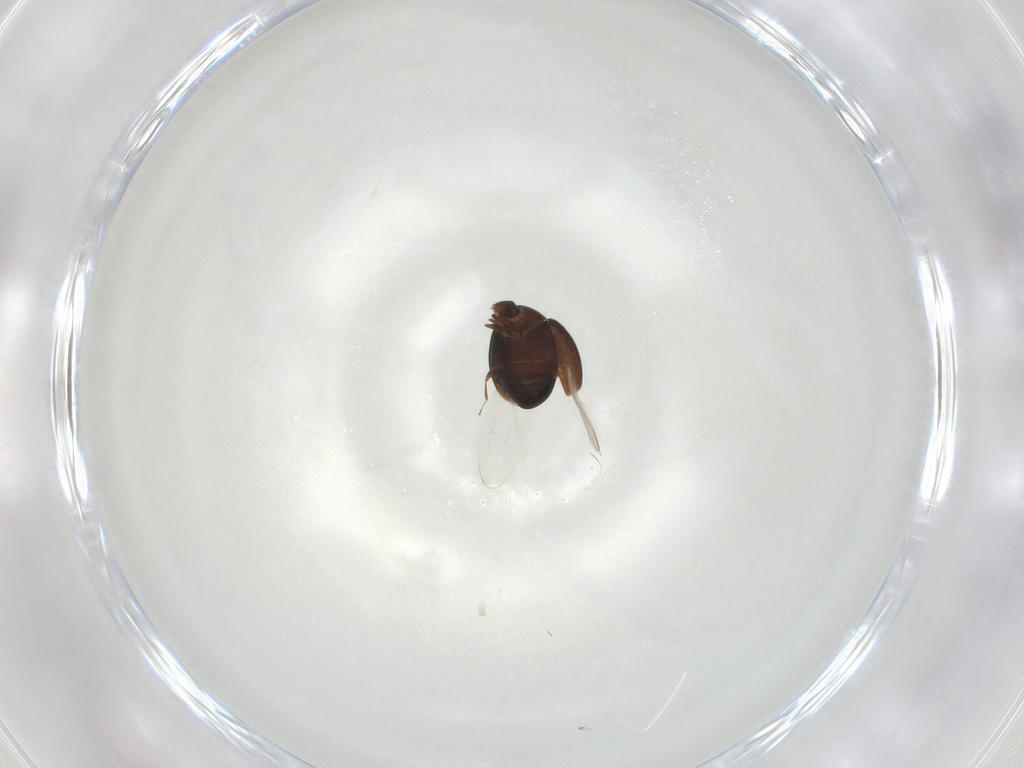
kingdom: Animalia
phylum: Arthropoda
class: Insecta
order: Coleoptera
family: Corylophidae
